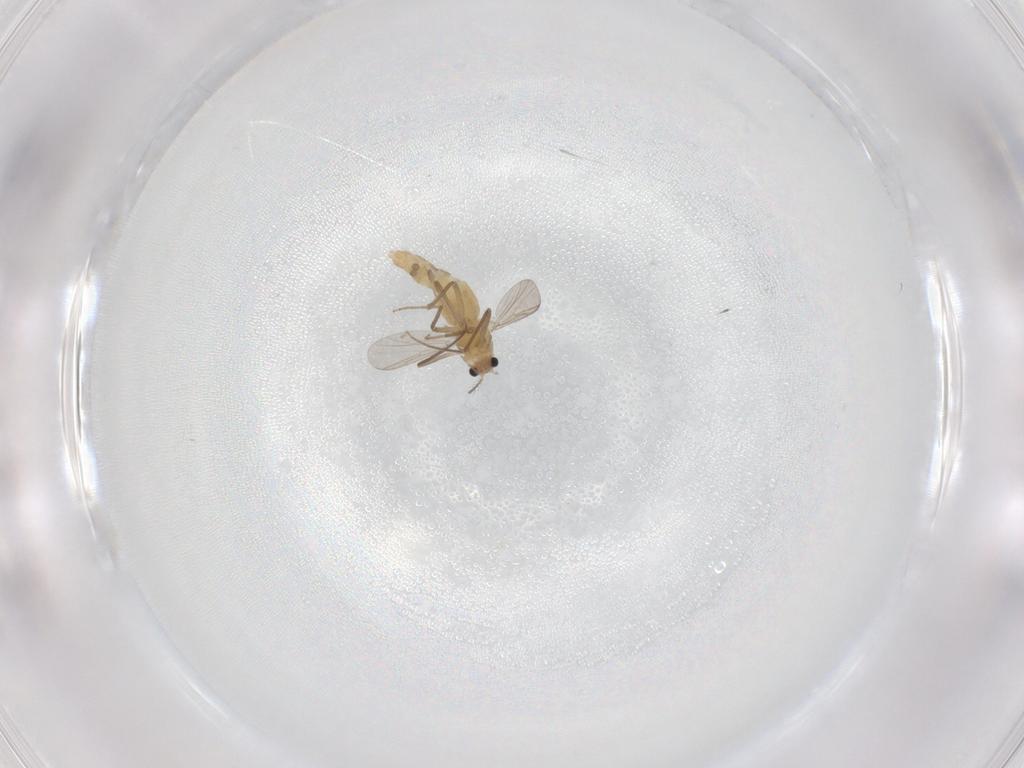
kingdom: Animalia
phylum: Arthropoda
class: Insecta
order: Diptera
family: Chironomidae
